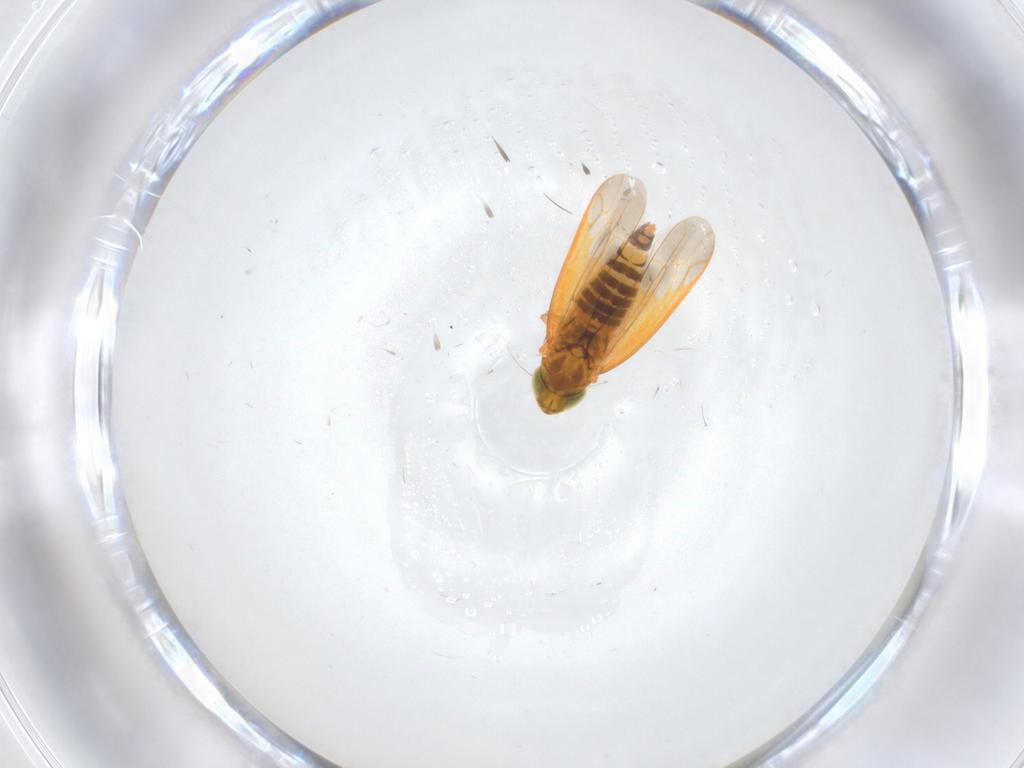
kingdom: Animalia
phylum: Arthropoda
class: Insecta
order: Hemiptera
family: Cicadellidae
